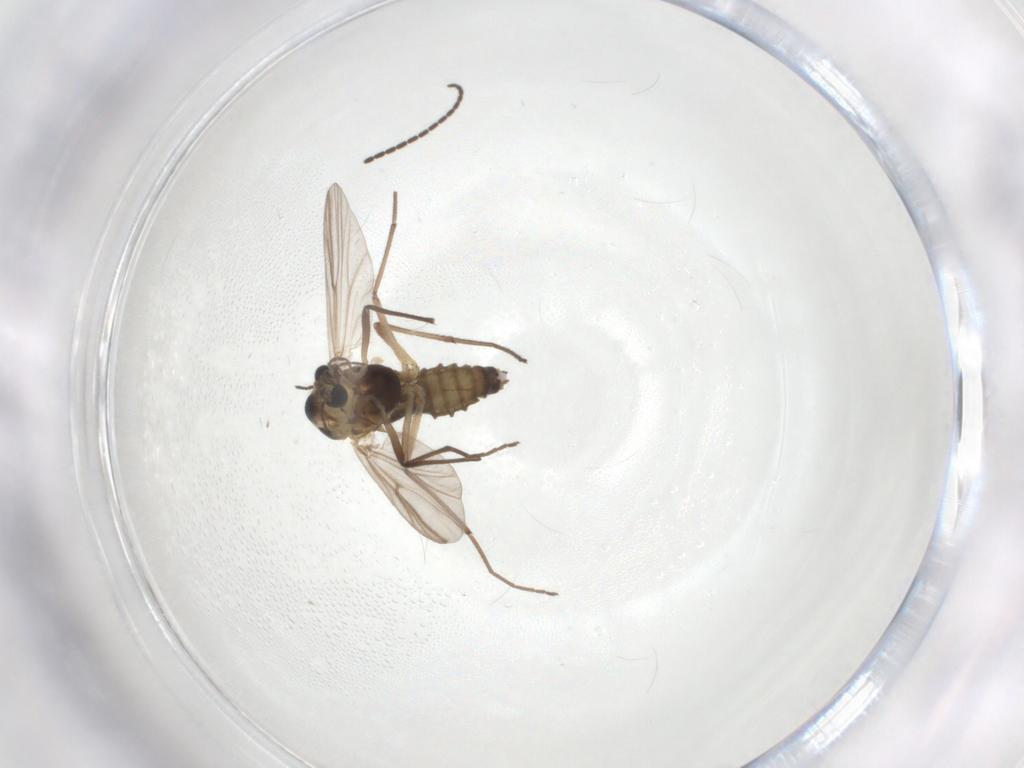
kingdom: Animalia
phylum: Arthropoda
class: Insecta
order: Diptera
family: Chironomidae
